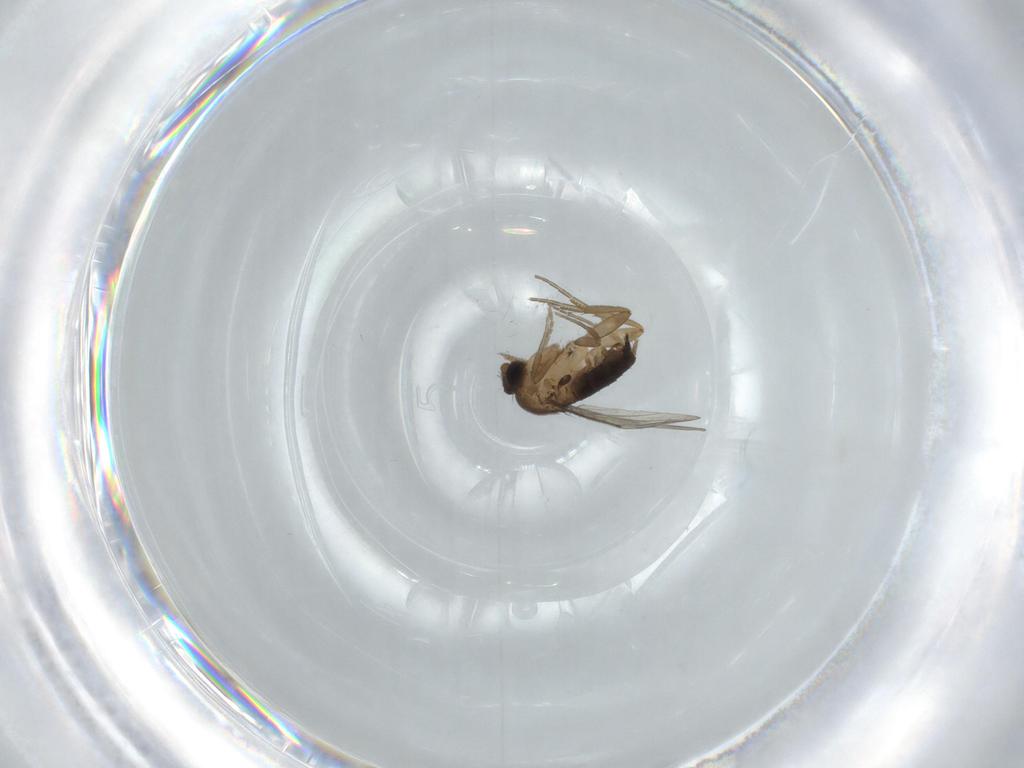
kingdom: Animalia
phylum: Arthropoda
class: Insecta
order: Diptera
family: Phoridae
